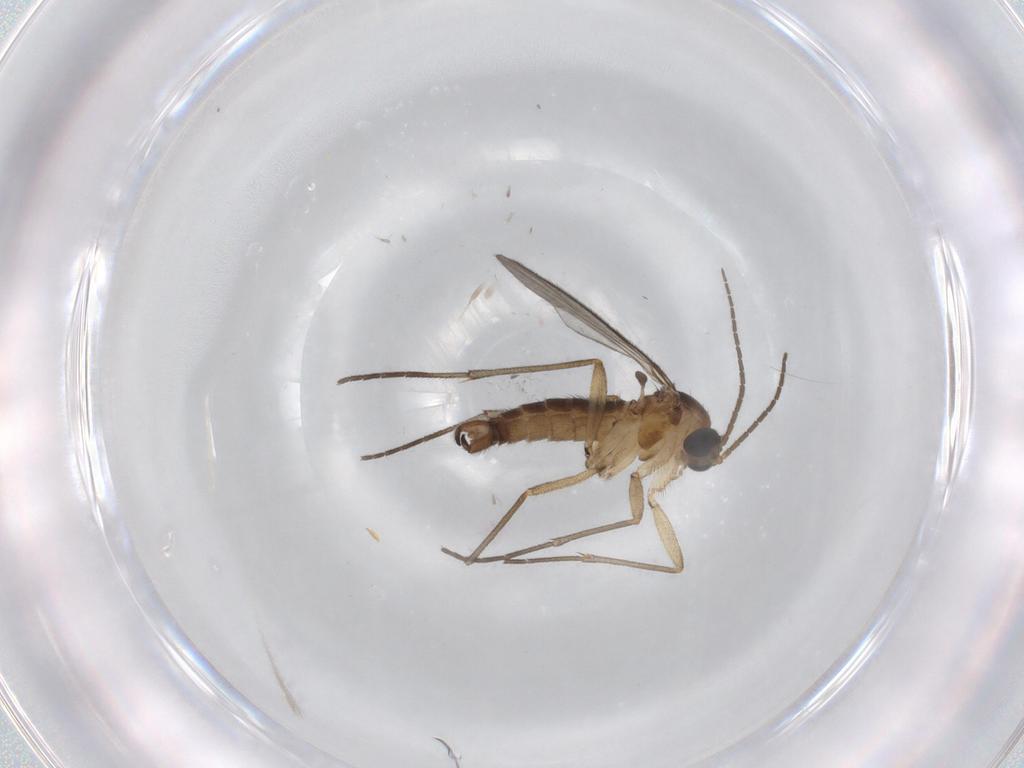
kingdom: Animalia
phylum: Arthropoda
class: Insecta
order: Diptera
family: Sciaridae
